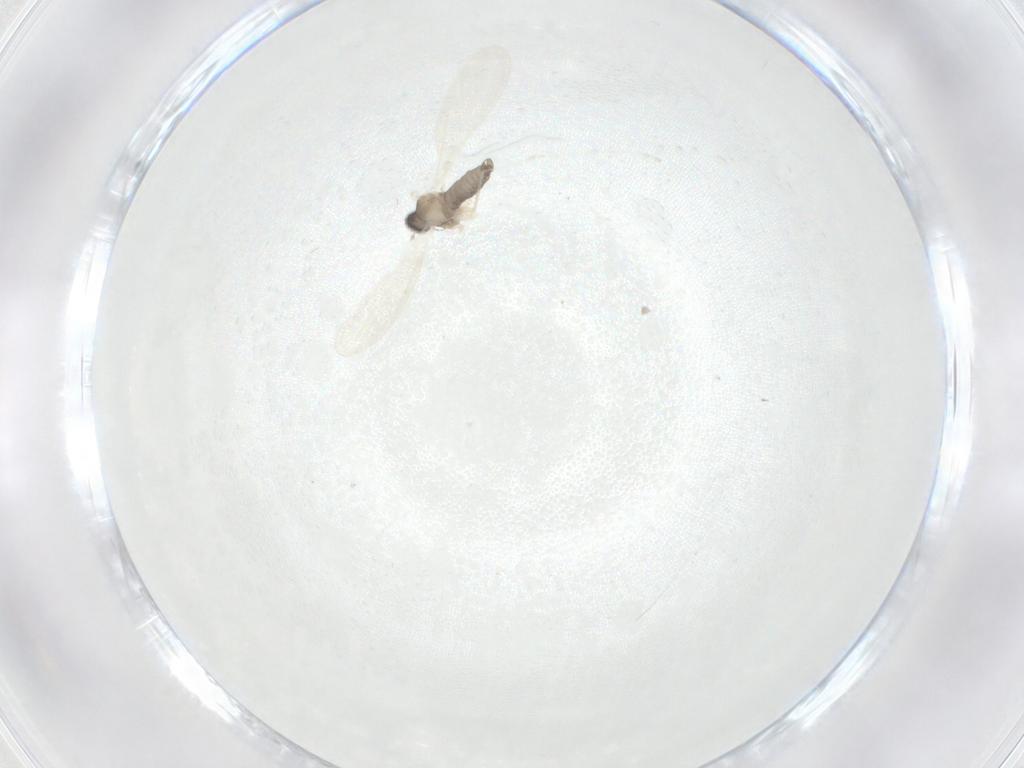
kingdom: Animalia
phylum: Arthropoda
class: Insecta
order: Diptera
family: Cecidomyiidae
